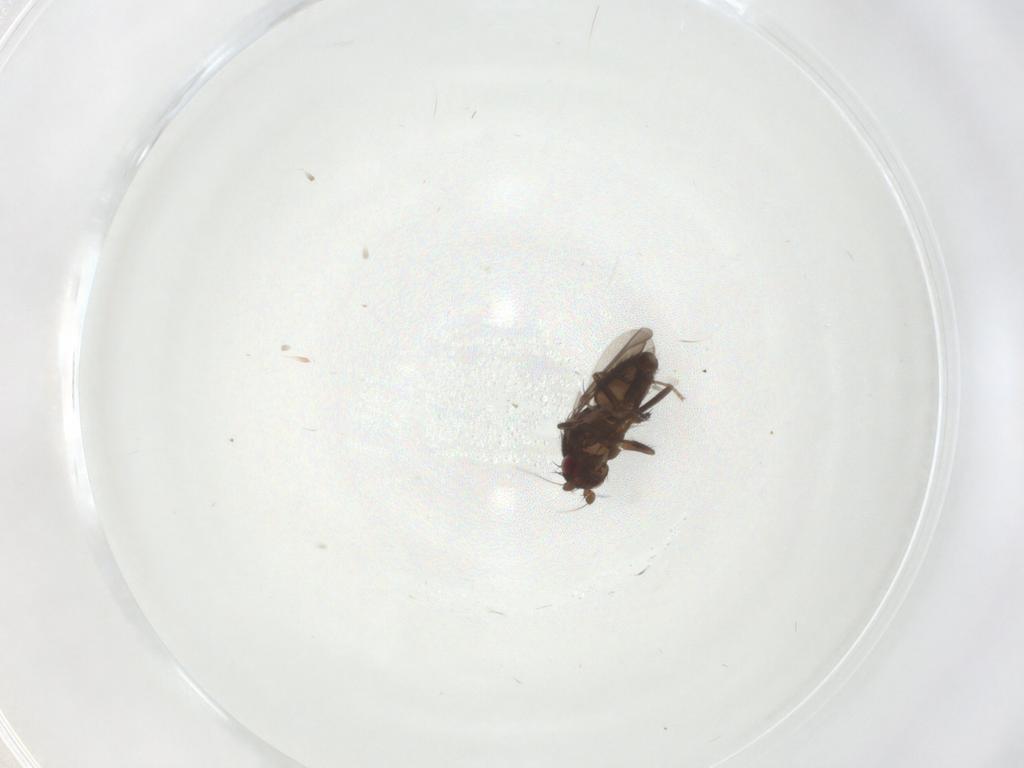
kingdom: Animalia
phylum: Arthropoda
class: Insecta
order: Diptera
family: Sphaeroceridae
